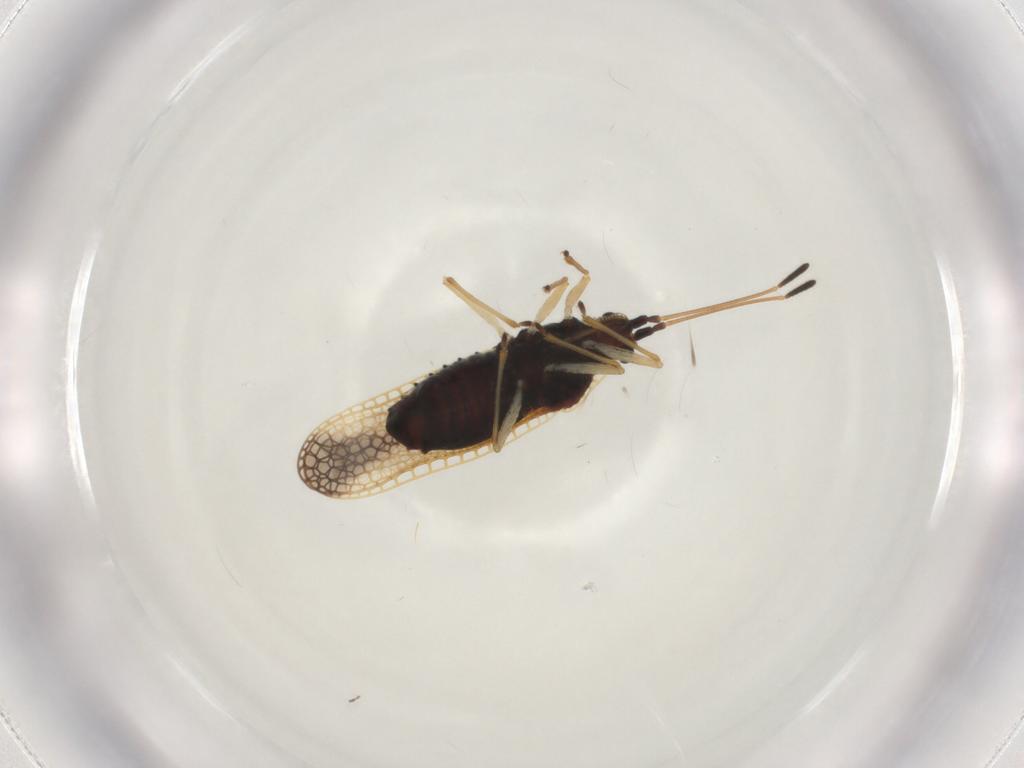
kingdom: Animalia
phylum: Arthropoda
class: Insecta
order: Hemiptera
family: Tingidae
